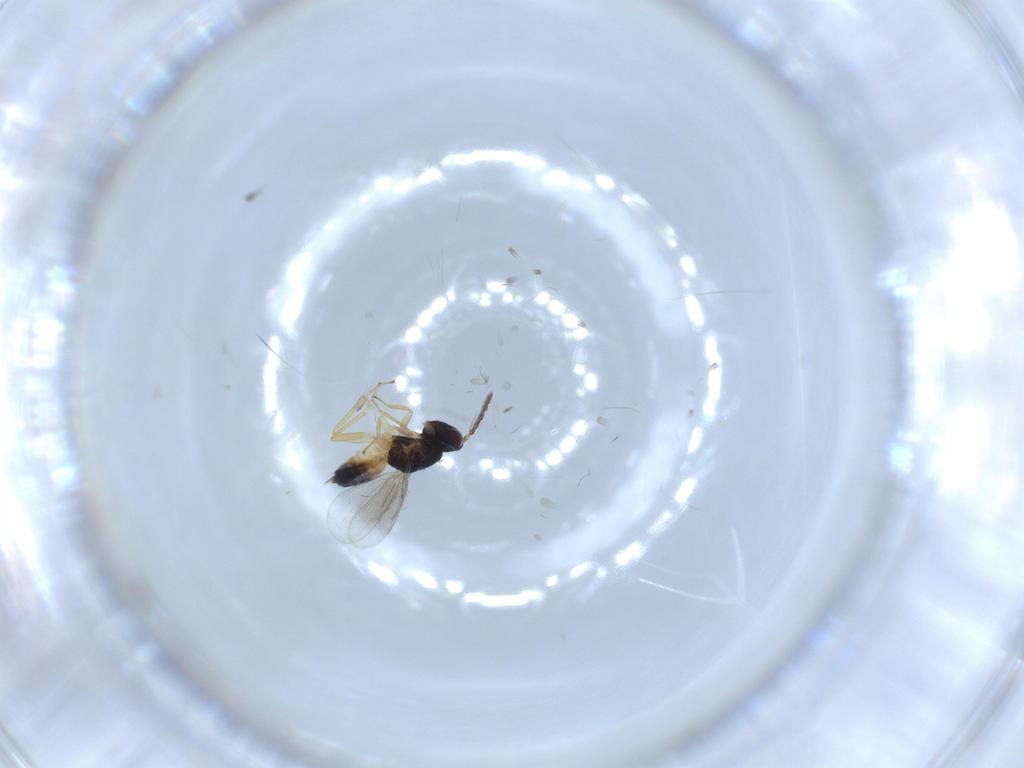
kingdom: Animalia
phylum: Arthropoda
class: Insecta
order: Hymenoptera
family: Eulophidae
